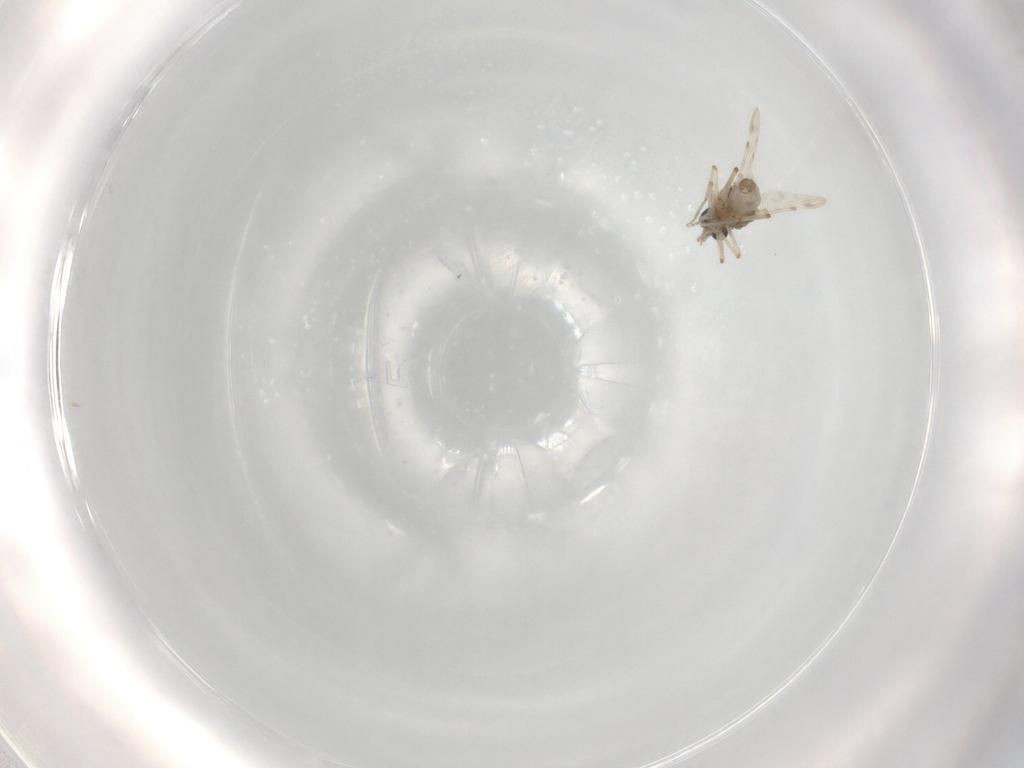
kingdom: Animalia
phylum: Arthropoda
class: Insecta
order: Diptera
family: Ceratopogonidae
